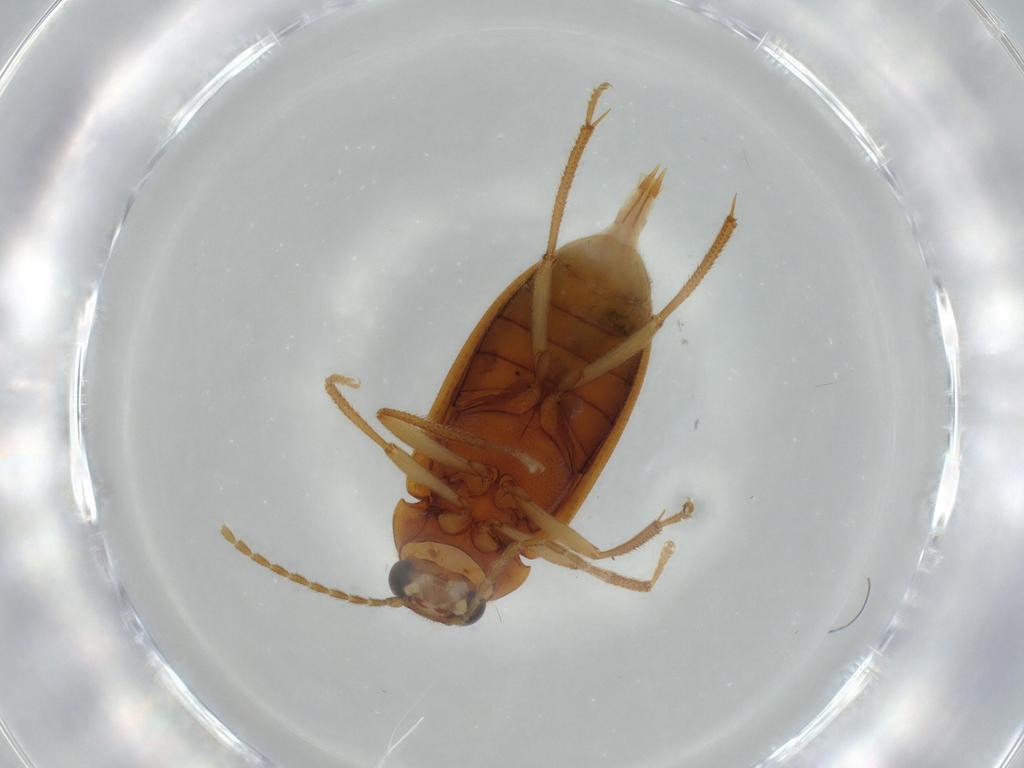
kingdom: Animalia
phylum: Arthropoda
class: Insecta
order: Coleoptera
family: Ptilodactylidae
